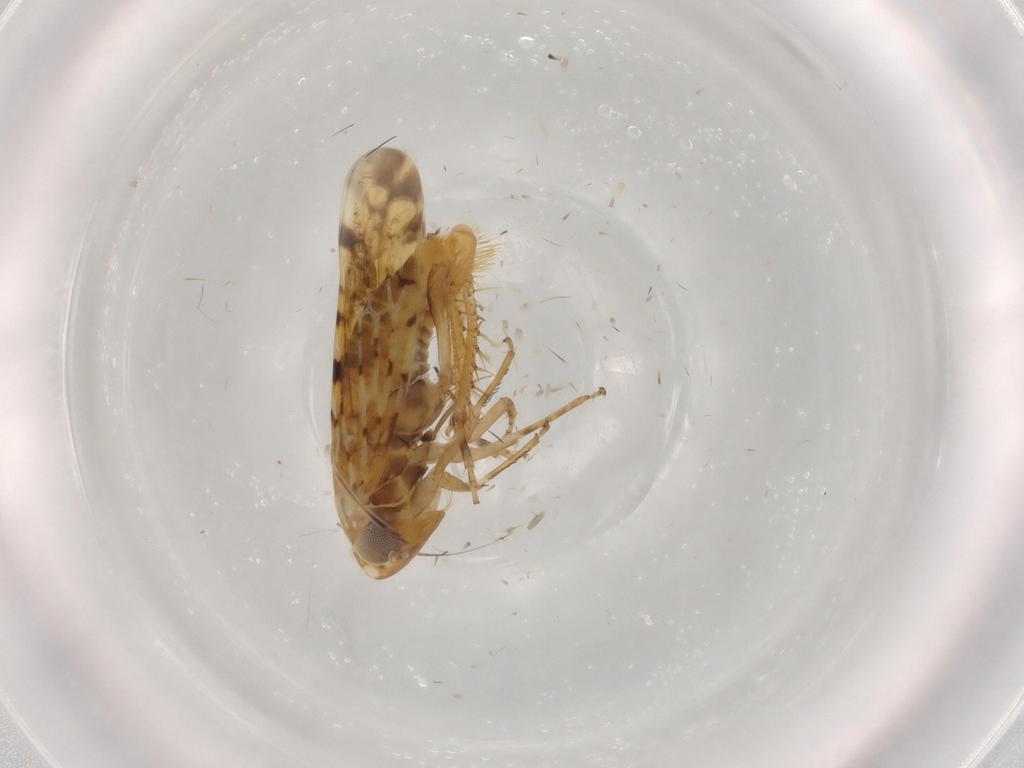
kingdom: Animalia
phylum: Arthropoda
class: Insecta
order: Hemiptera
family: Cicadellidae
